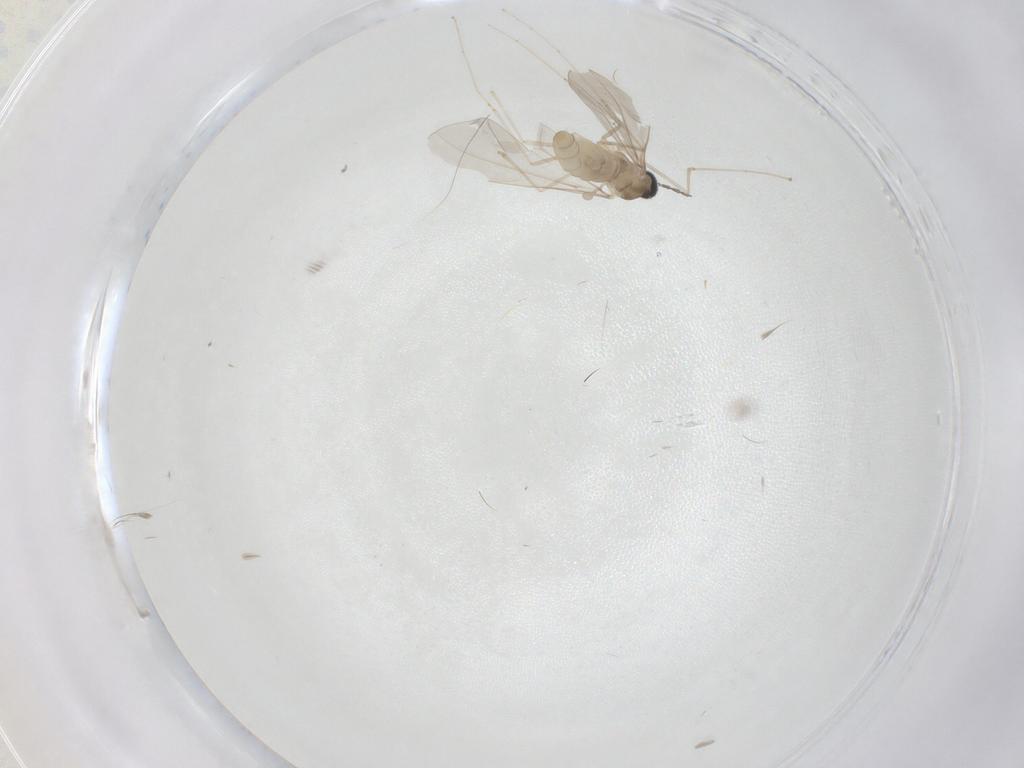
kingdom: Animalia
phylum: Arthropoda
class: Insecta
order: Diptera
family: Cecidomyiidae
